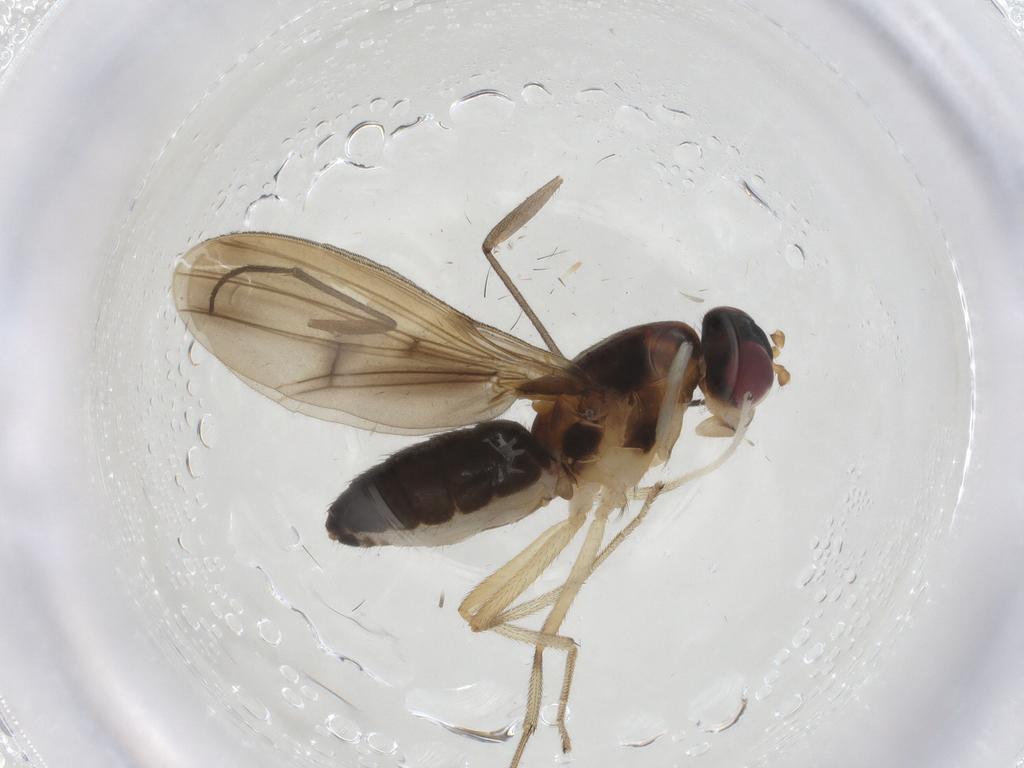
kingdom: Animalia
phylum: Arthropoda
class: Insecta
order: Diptera
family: Lauxaniidae
